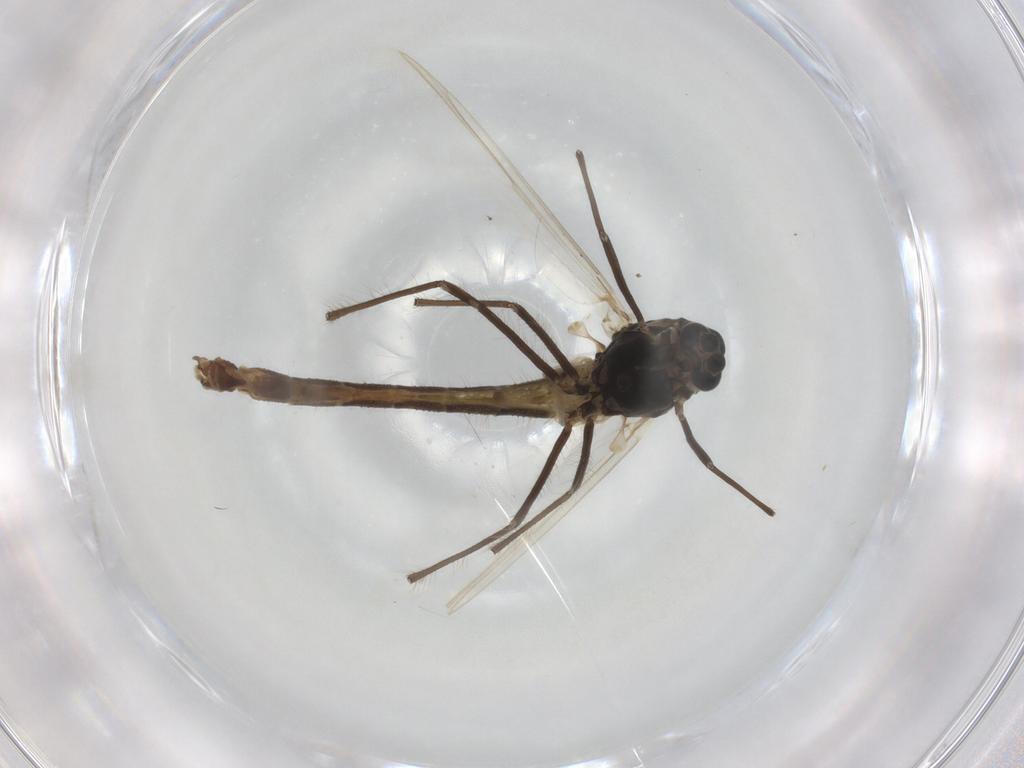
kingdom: Animalia
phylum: Arthropoda
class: Insecta
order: Diptera
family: Chironomidae
